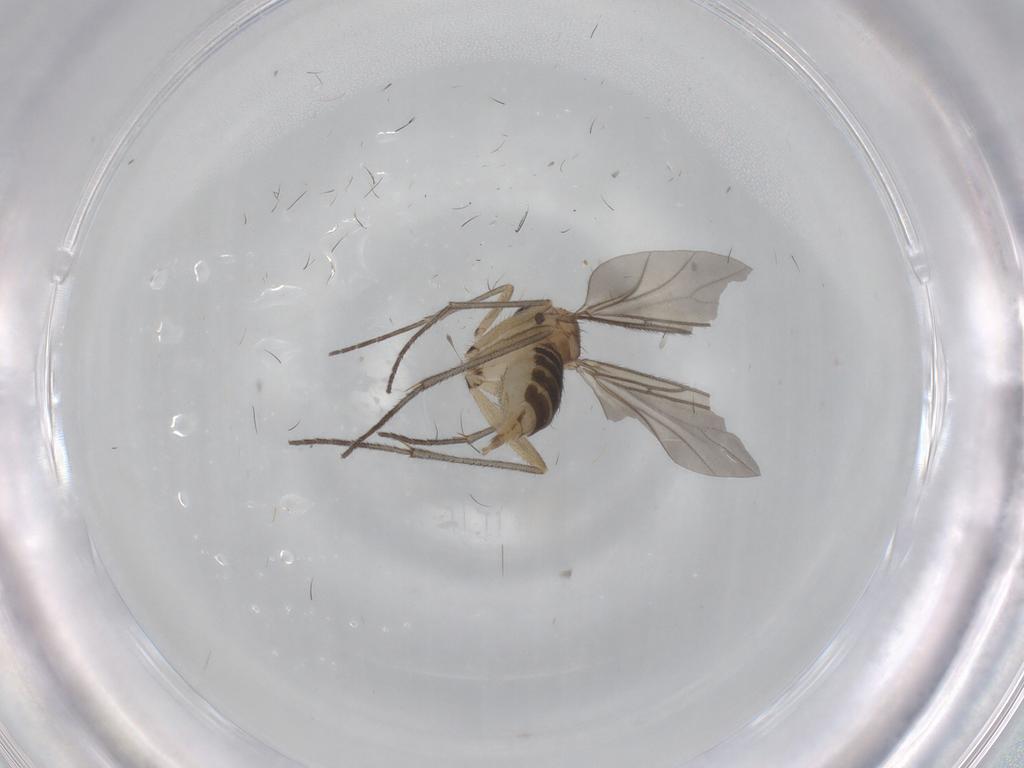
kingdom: Animalia
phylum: Arthropoda
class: Insecta
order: Diptera
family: Sciaridae
